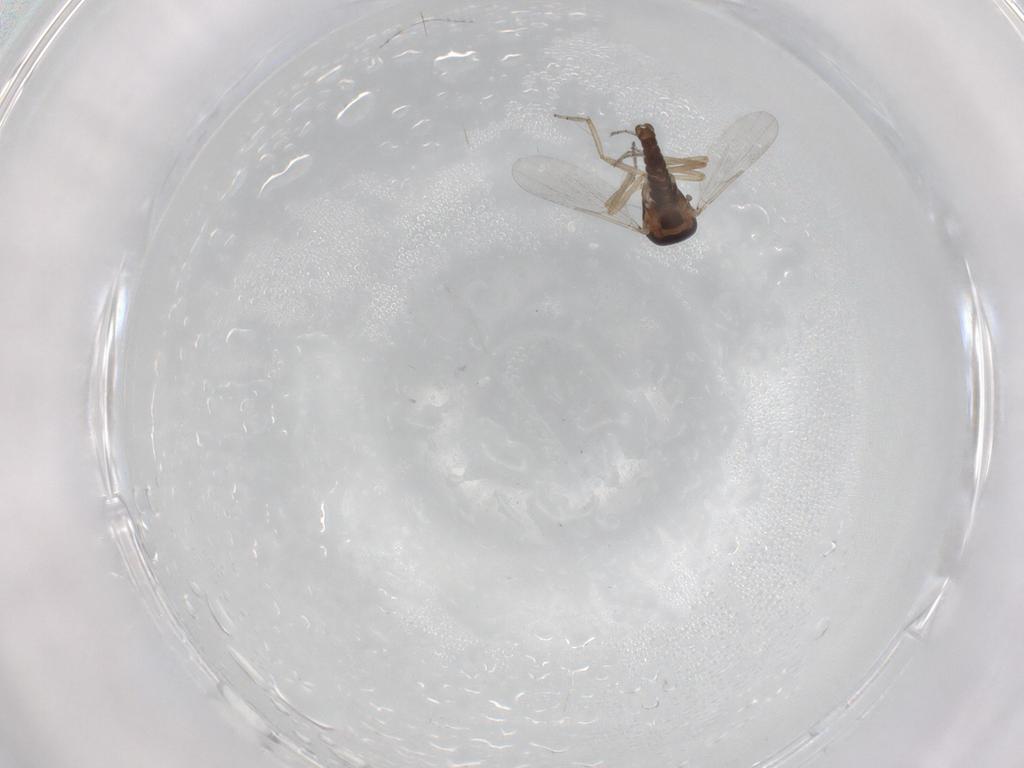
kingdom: Animalia
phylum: Arthropoda
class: Insecta
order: Diptera
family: Ceratopogonidae
